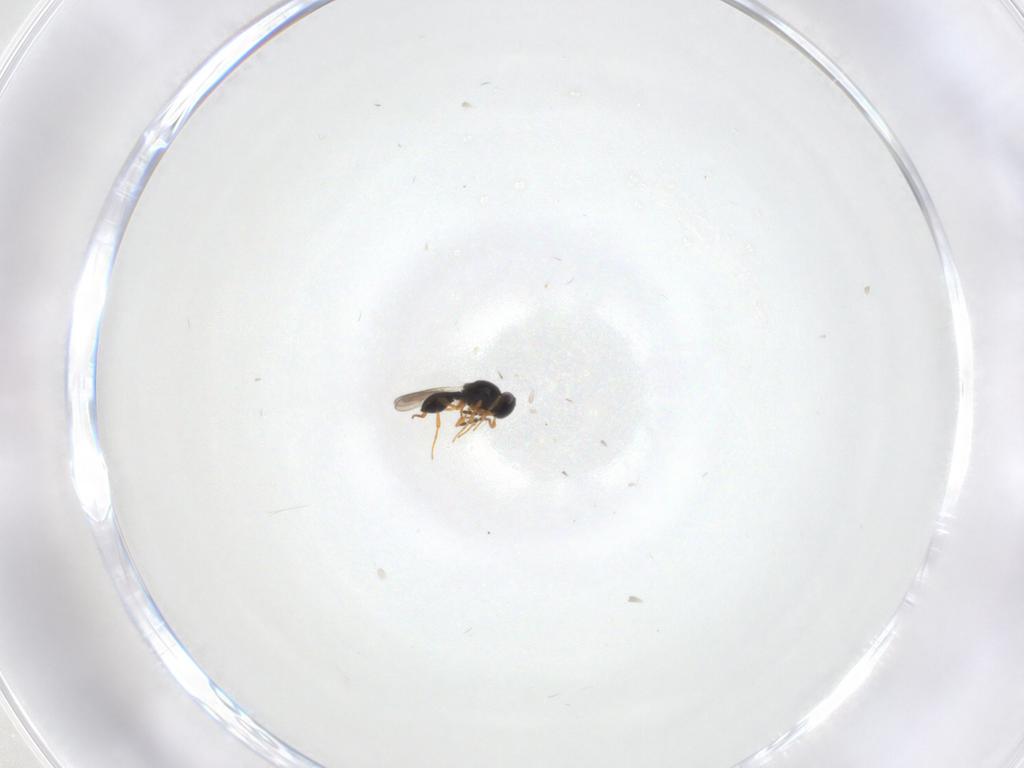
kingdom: Animalia
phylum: Arthropoda
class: Insecta
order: Hymenoptera
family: Platygastridae
